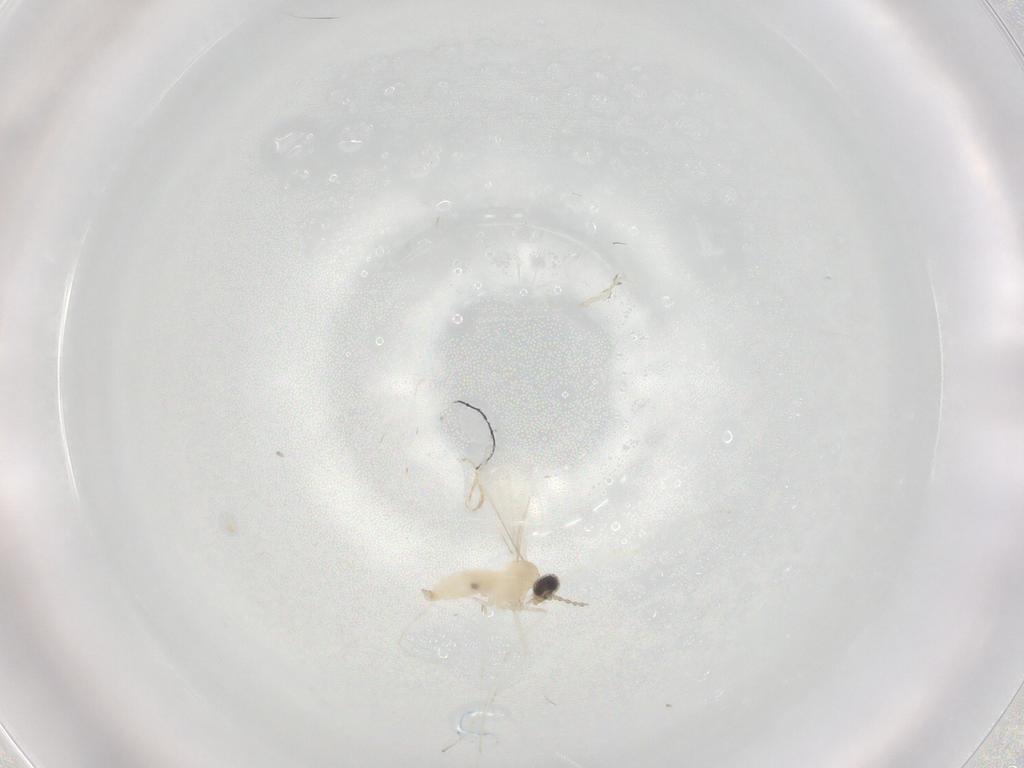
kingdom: Animalia
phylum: Arthropoda
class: Insecta
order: Diptera
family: Cecidomyiidae
